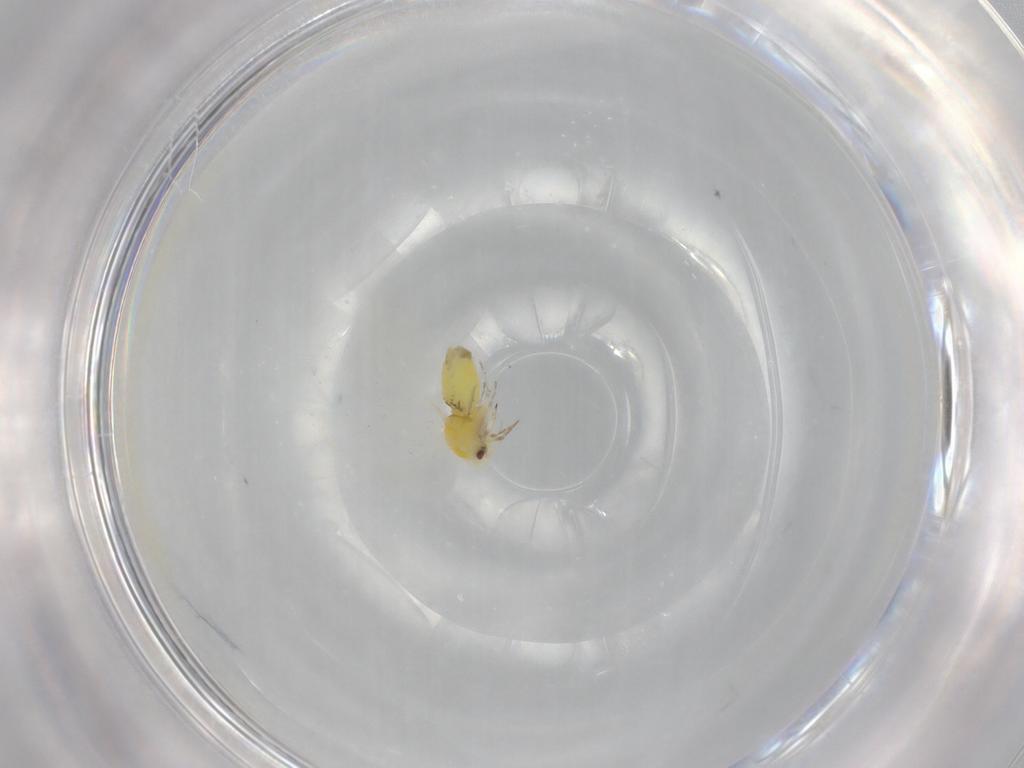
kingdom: Animalia
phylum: Arthropoda
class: Insecta
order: Hemiptera
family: Aleyrodidae
